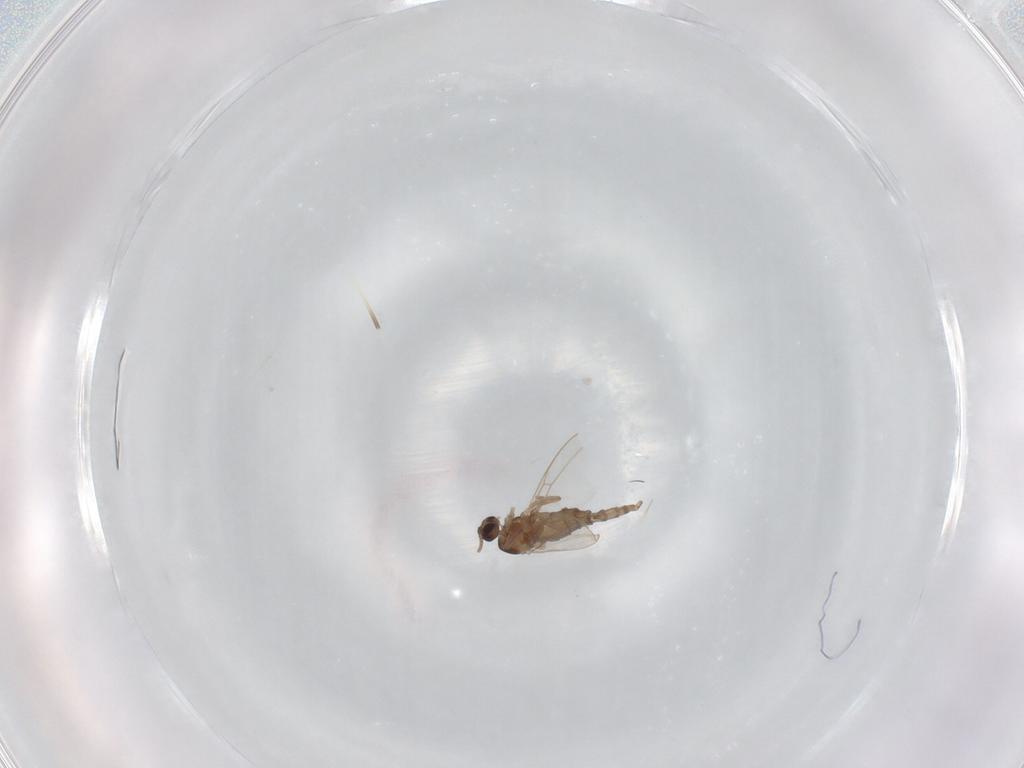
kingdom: Animalia
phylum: Arthropoda
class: Insecta
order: Diptera
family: Cecidomyiidae
